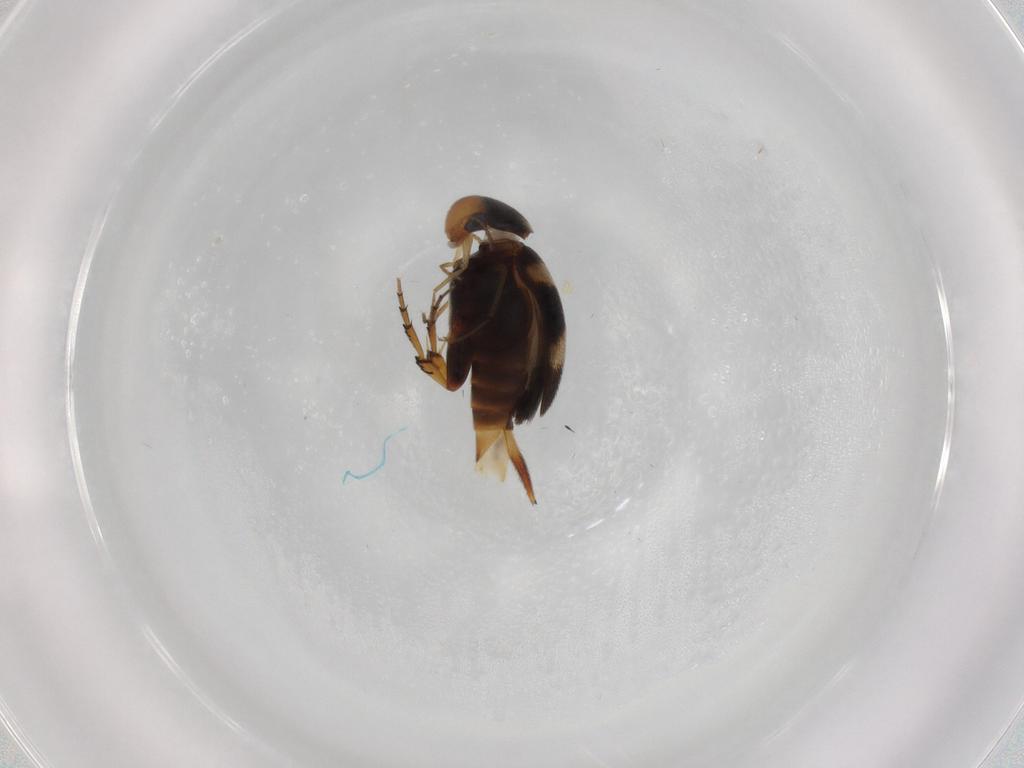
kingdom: Animalia
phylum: Arthropoda
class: Insecta
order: Coleoptera
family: Mordellidae
